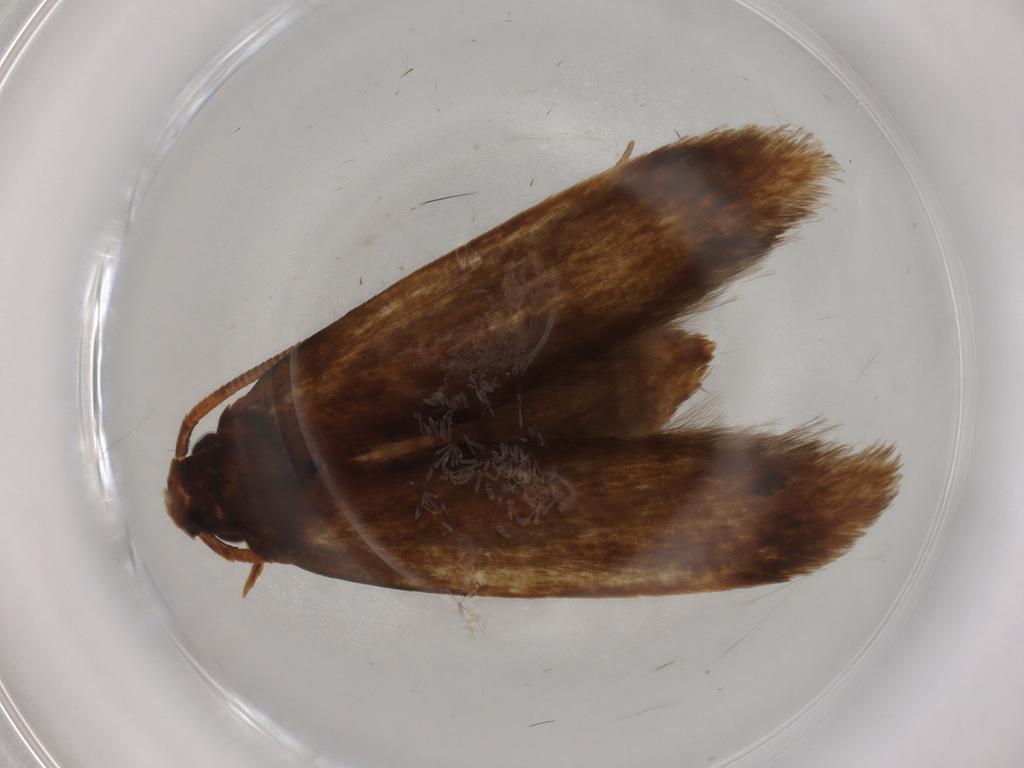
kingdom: Animalia
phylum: Arthropoda
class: Insecta
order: Lepidoptera
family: Tineidae
